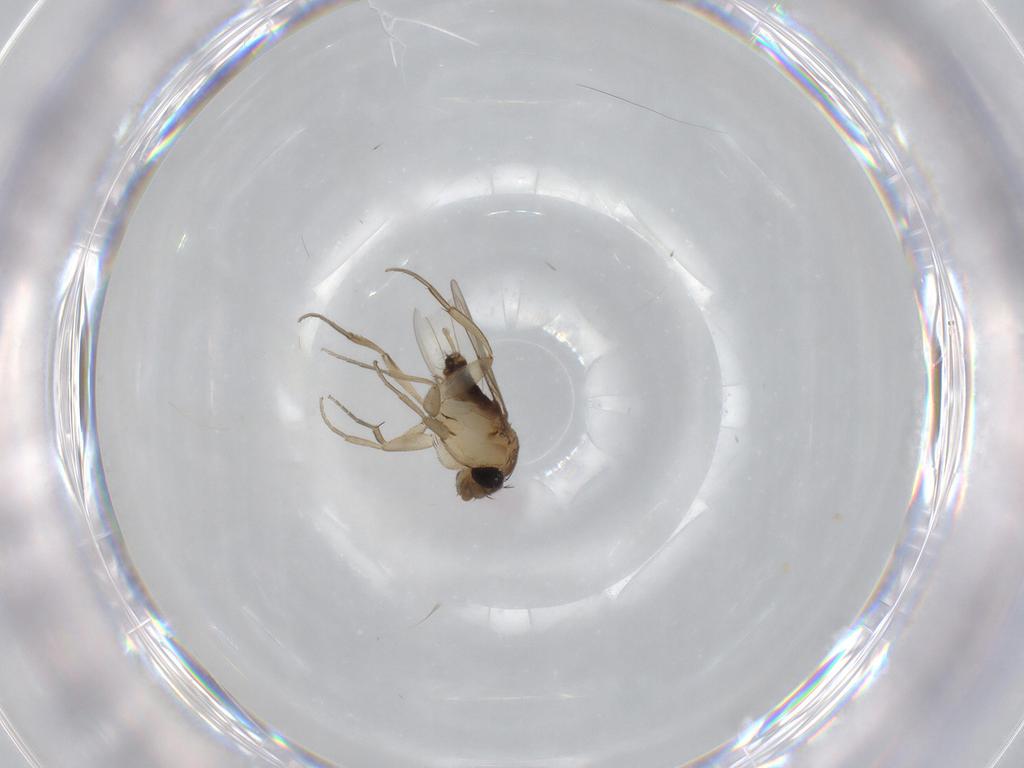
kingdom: Animalia
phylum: Arthropoda
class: Insecta
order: Diptera
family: Phoridae
